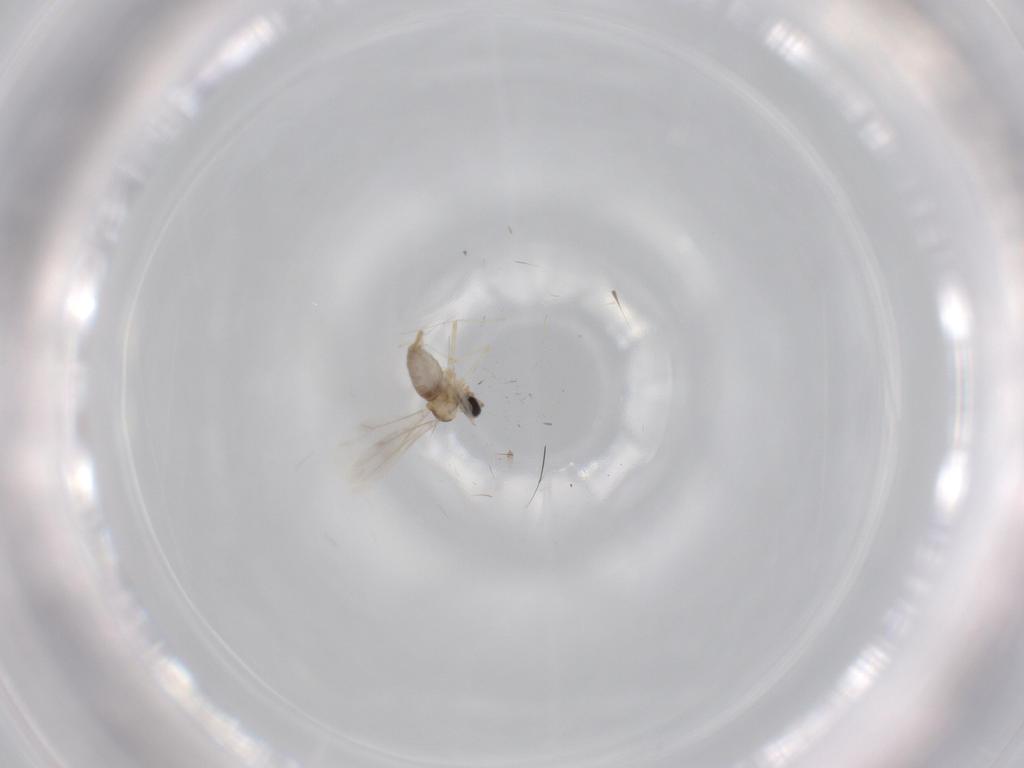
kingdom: Animalia
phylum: Arthropoda
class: Insecta
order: Diptera
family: Cecidomyiidae
